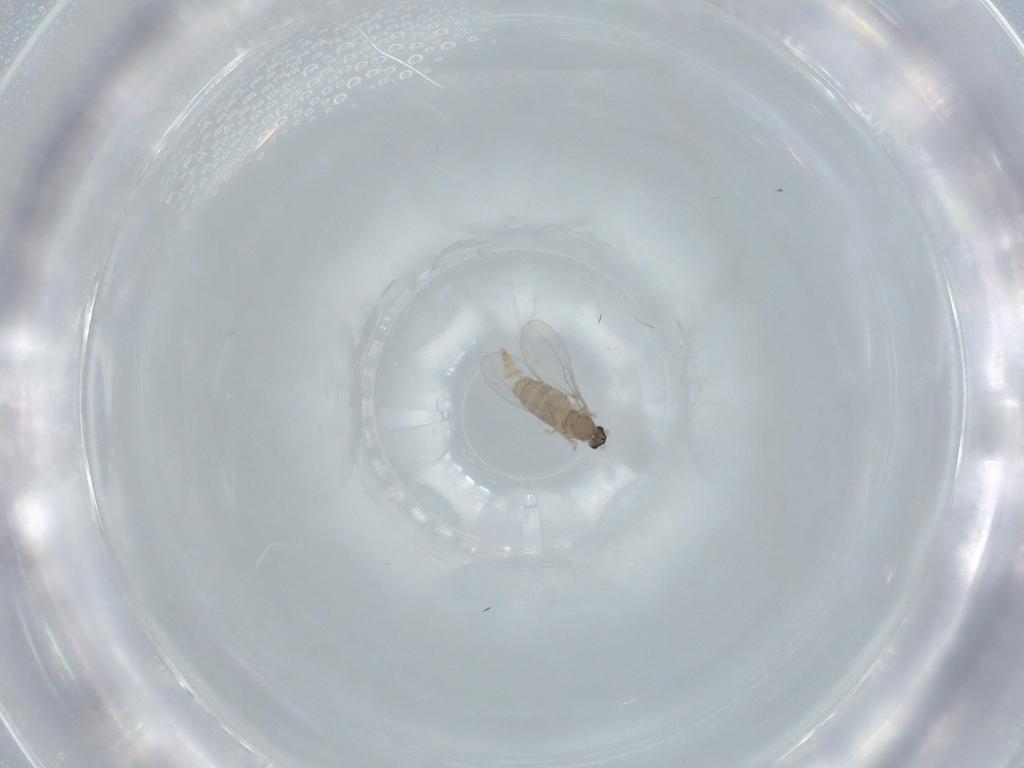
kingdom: Animalia
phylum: Arthropoda
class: Insecta
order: Diptera
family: Cecidomyiidae
